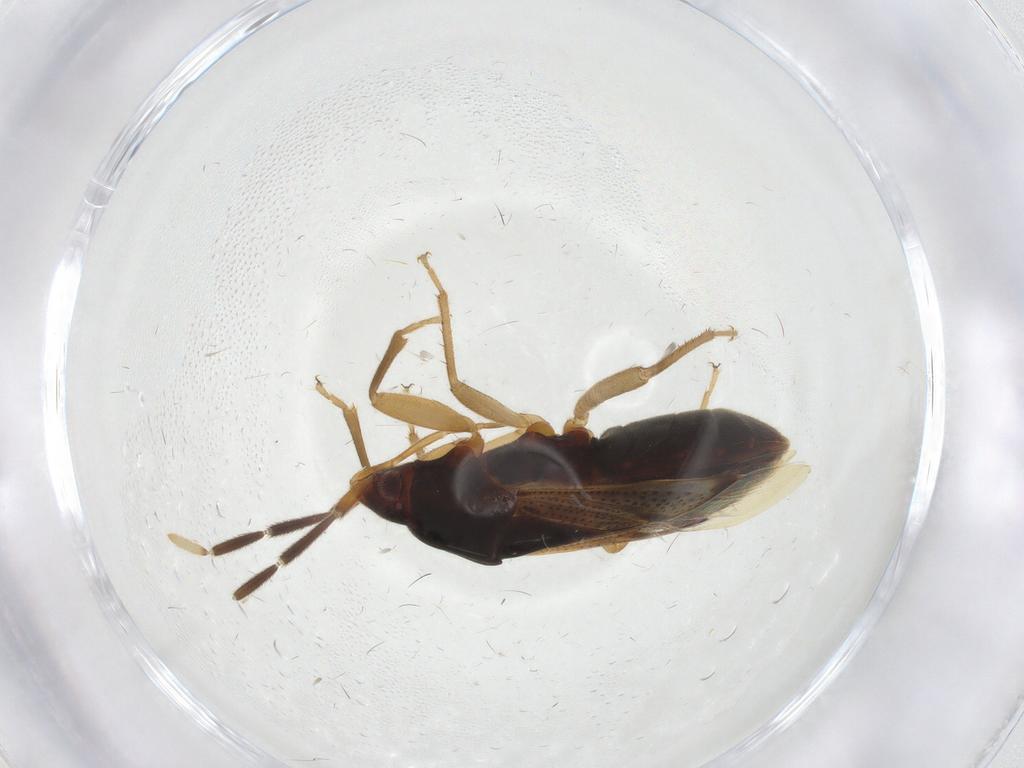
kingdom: Animalia
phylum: Arthropoda
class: Insecta
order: Hemiptera
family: Rhyparochromidae
